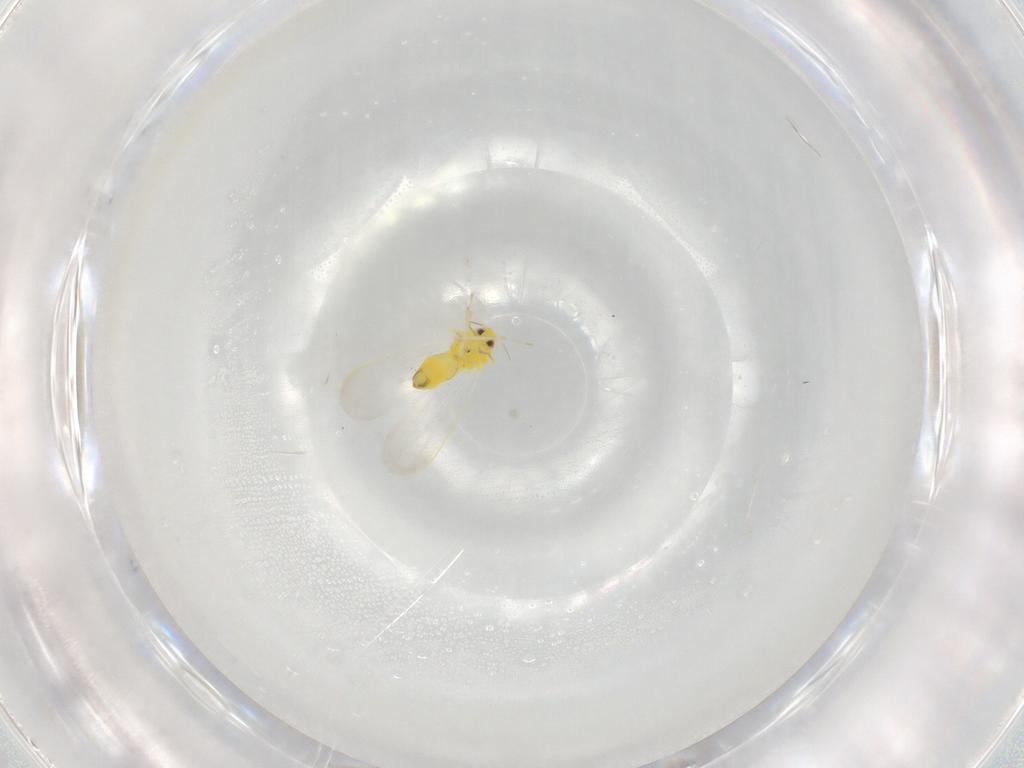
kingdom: Animalia
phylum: Arthropoda
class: Insecta
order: Hemiptera
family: Aleyrodidae
